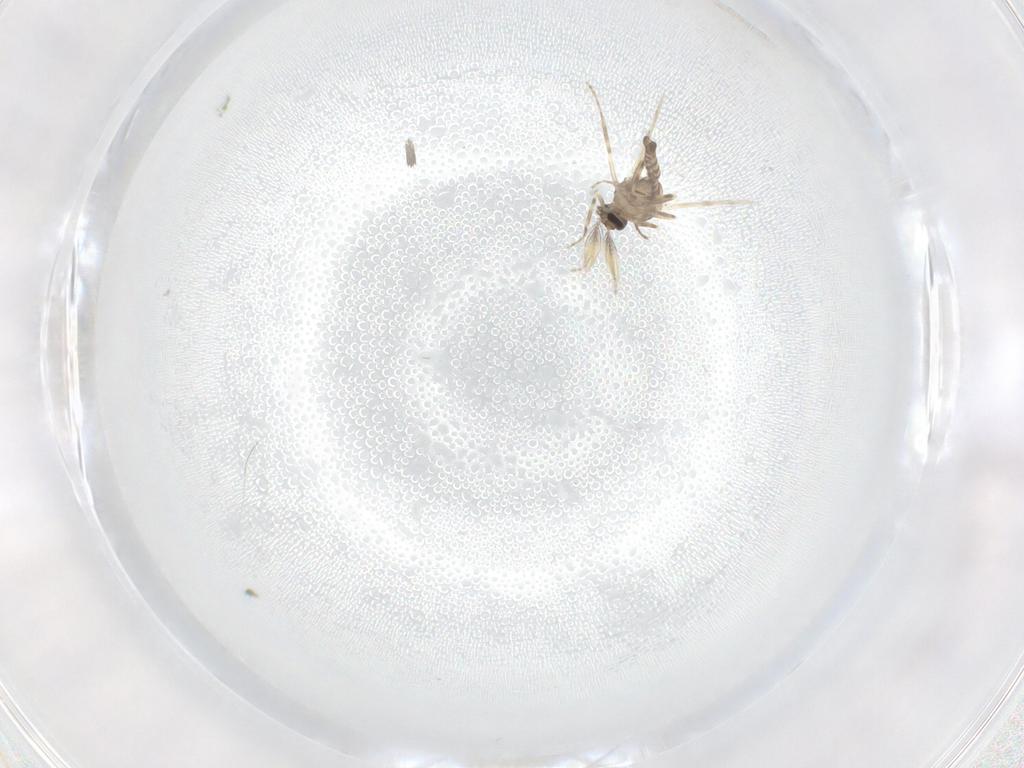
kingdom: Animalia
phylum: Arthropoda
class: Insecta
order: Diptera
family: Ceratopogonidae
